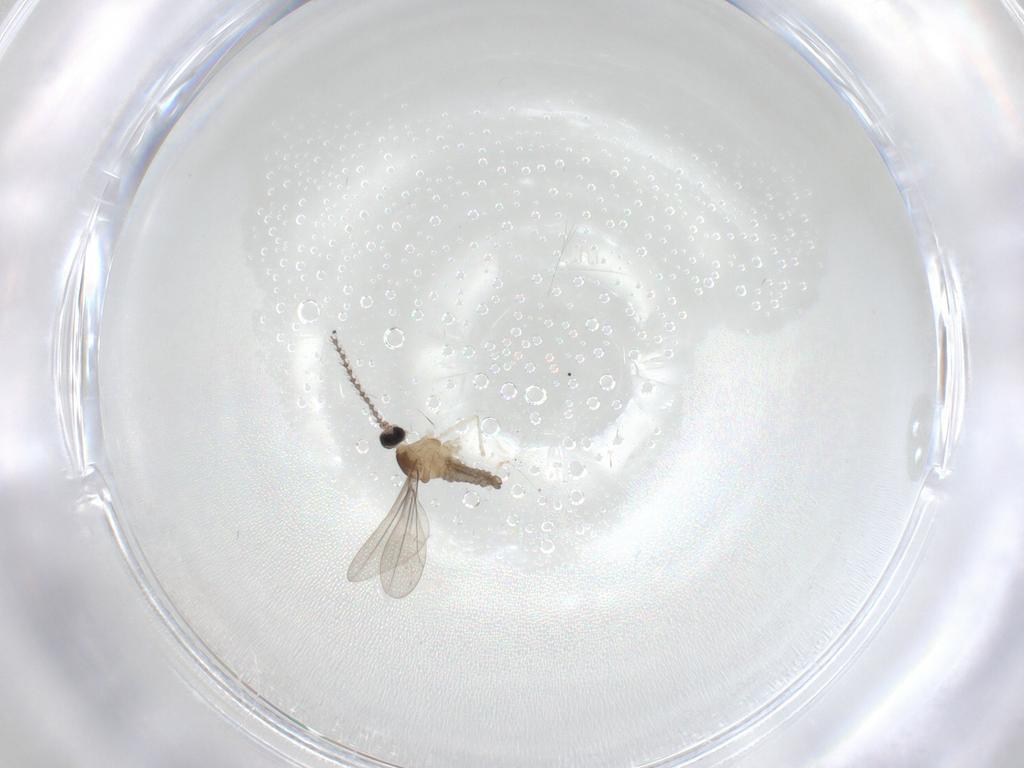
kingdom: Animalia
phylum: Arthropoda
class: Insecta
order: Diptera
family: Cecidomyiidae
